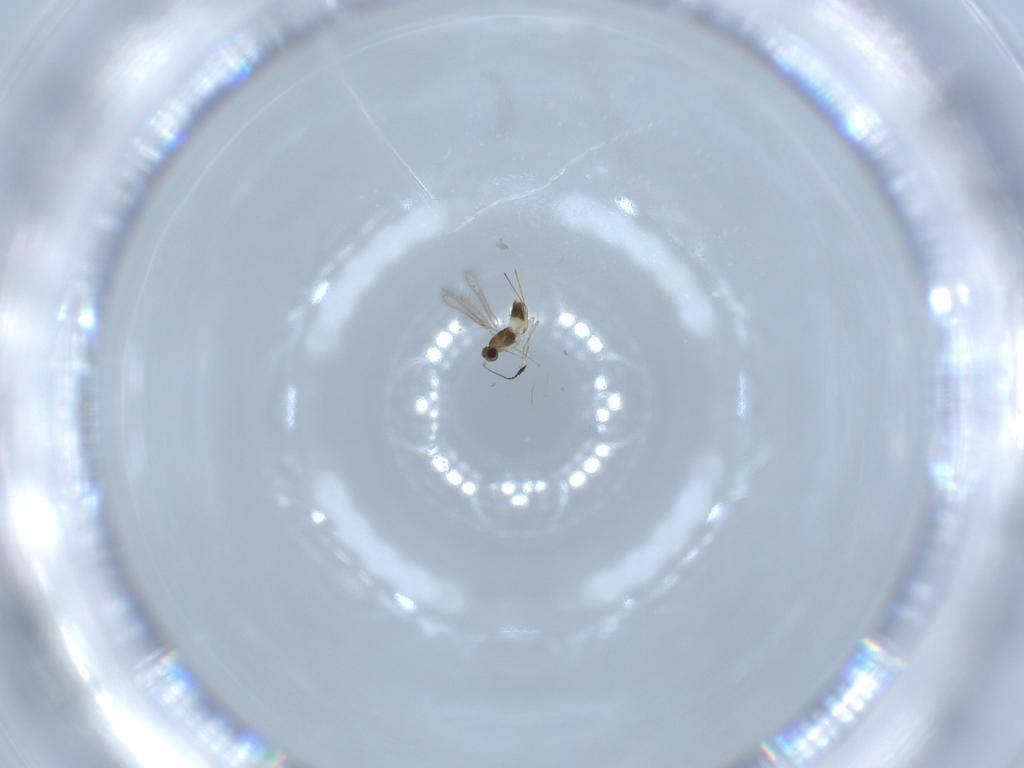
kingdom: Animalia
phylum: Arthropoda
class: Insecta
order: Hymenoptera
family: Mymaridae
